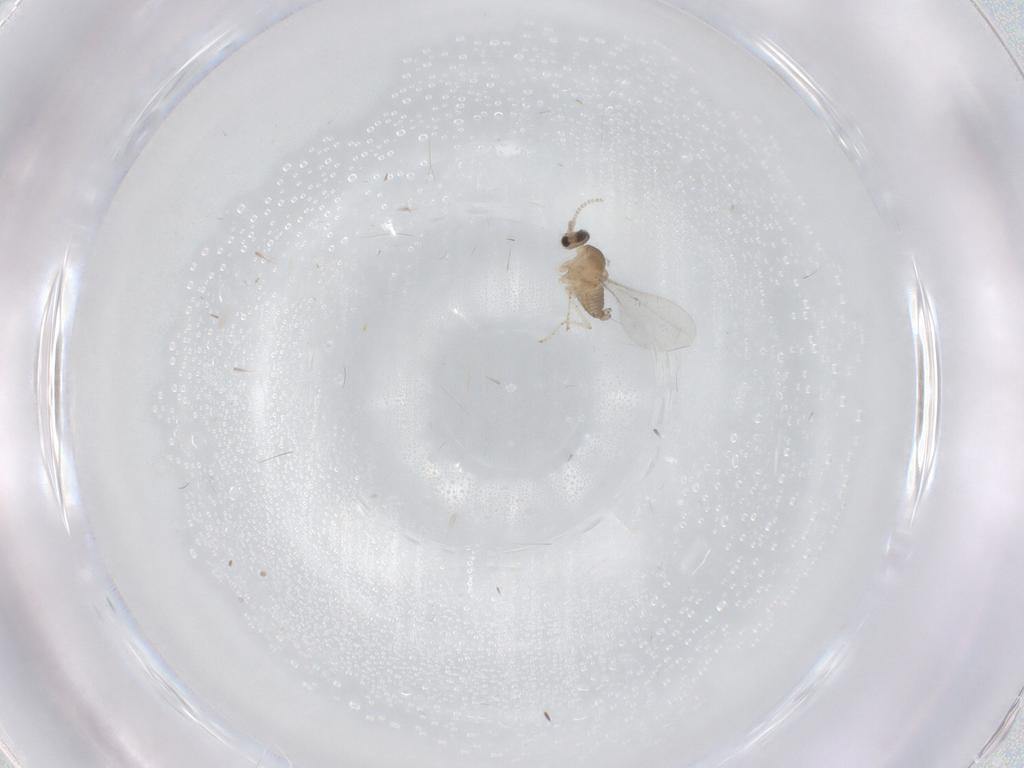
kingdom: Animalia
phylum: Arthropoda
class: Insecta
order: Diptera
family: Cecidomyiidae
